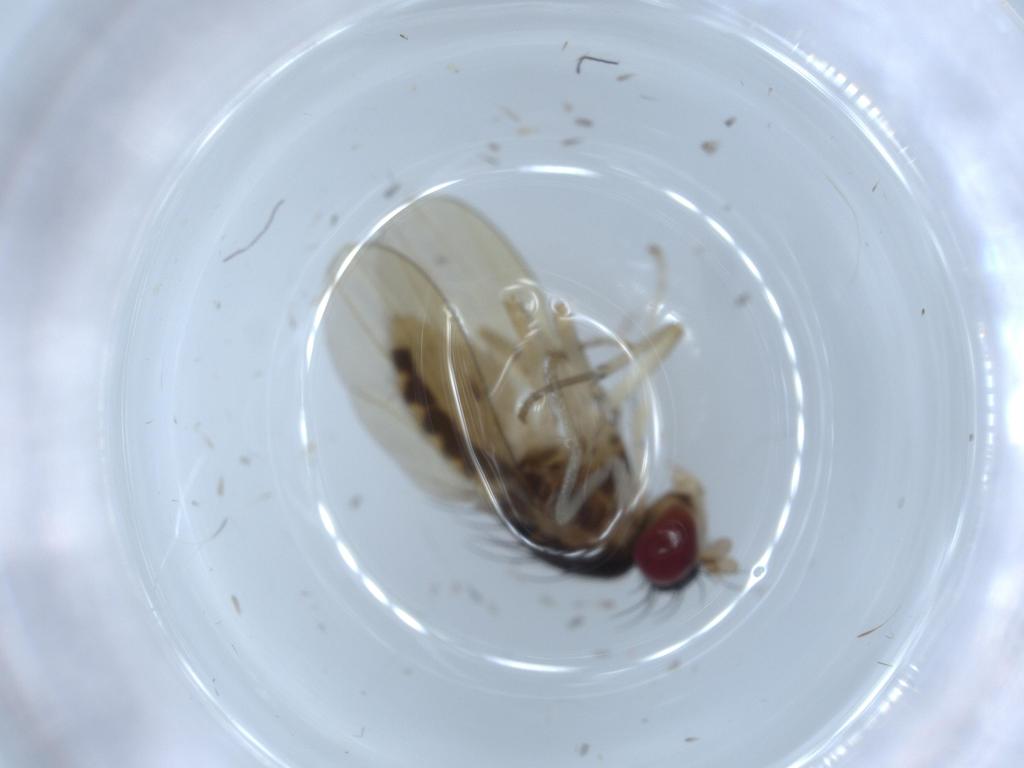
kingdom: Animalia
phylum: Arthropoda
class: Insecta
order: Diptera
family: Ceratopogonidae
